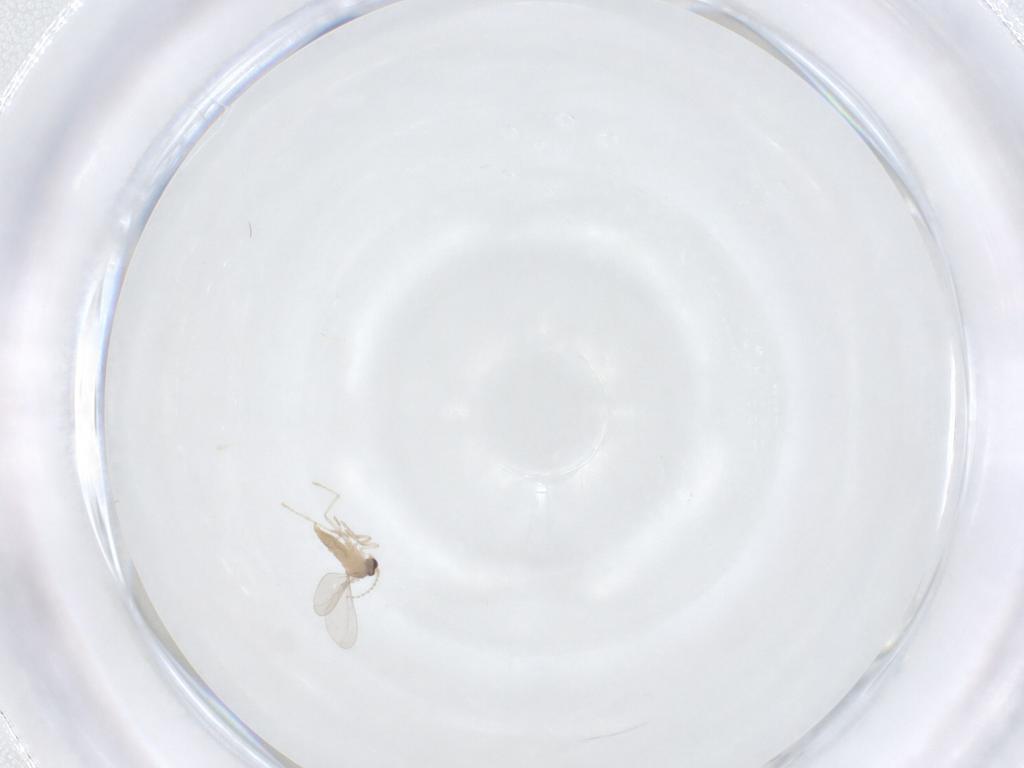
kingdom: Animalia
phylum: Arthropoda
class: Insecta
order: Diptera
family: Cecidomyiidae
